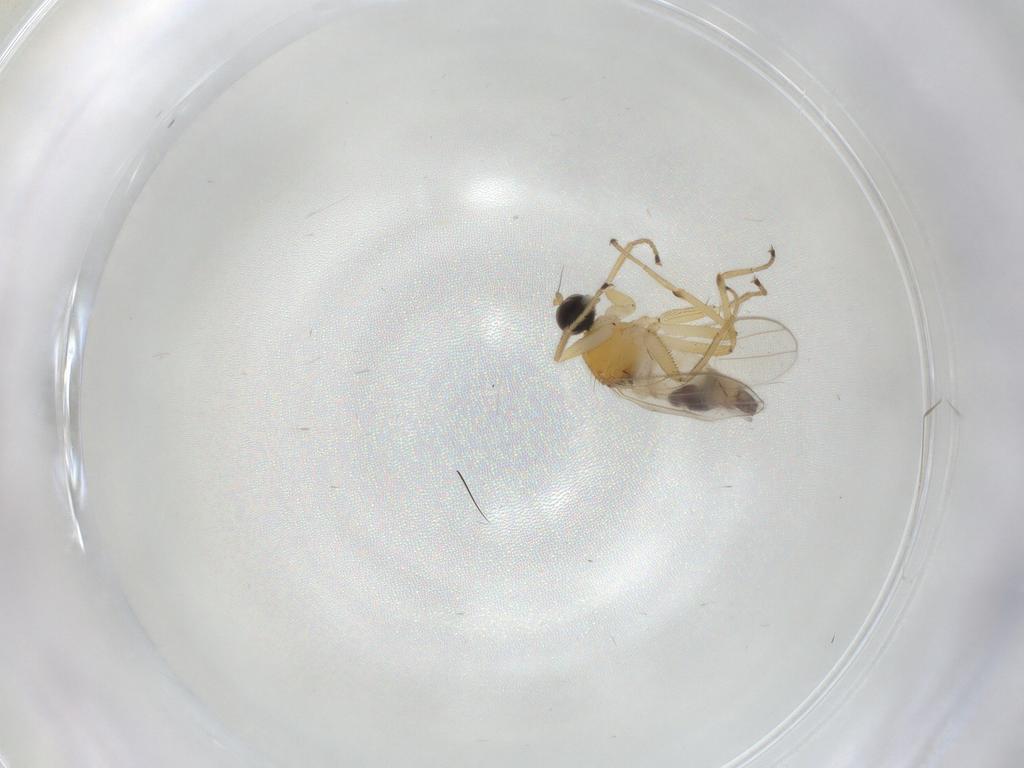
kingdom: Animalia
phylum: Arthropoda
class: Insecta
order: Diptera
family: Hybotidae
